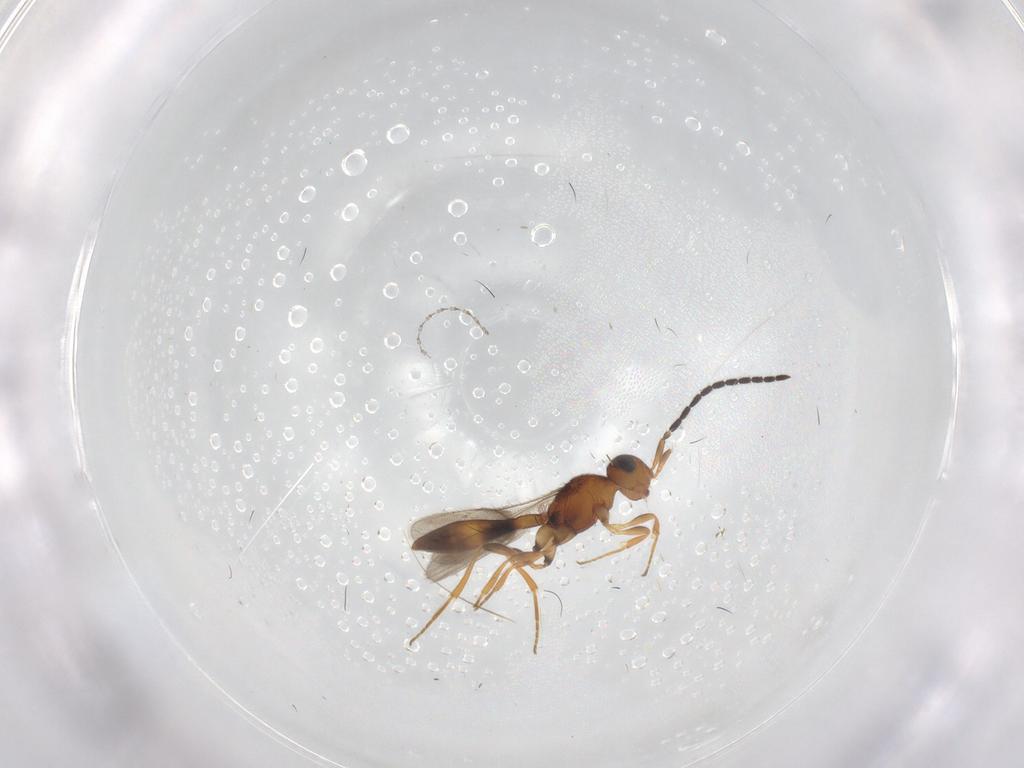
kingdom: Animalia
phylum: Arthropoda
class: Insecta
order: Hymenoptera
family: Scelionidae
